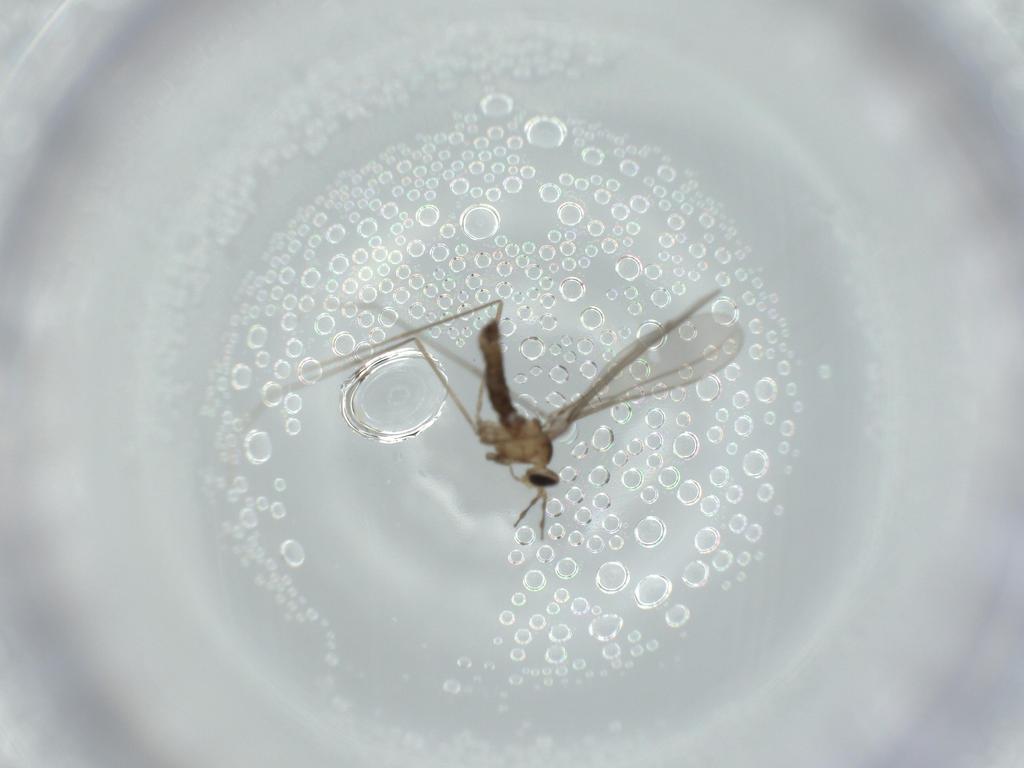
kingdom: Animalia
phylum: Arthropoda
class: Insecta
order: Diptera
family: Cecidomyiidae
